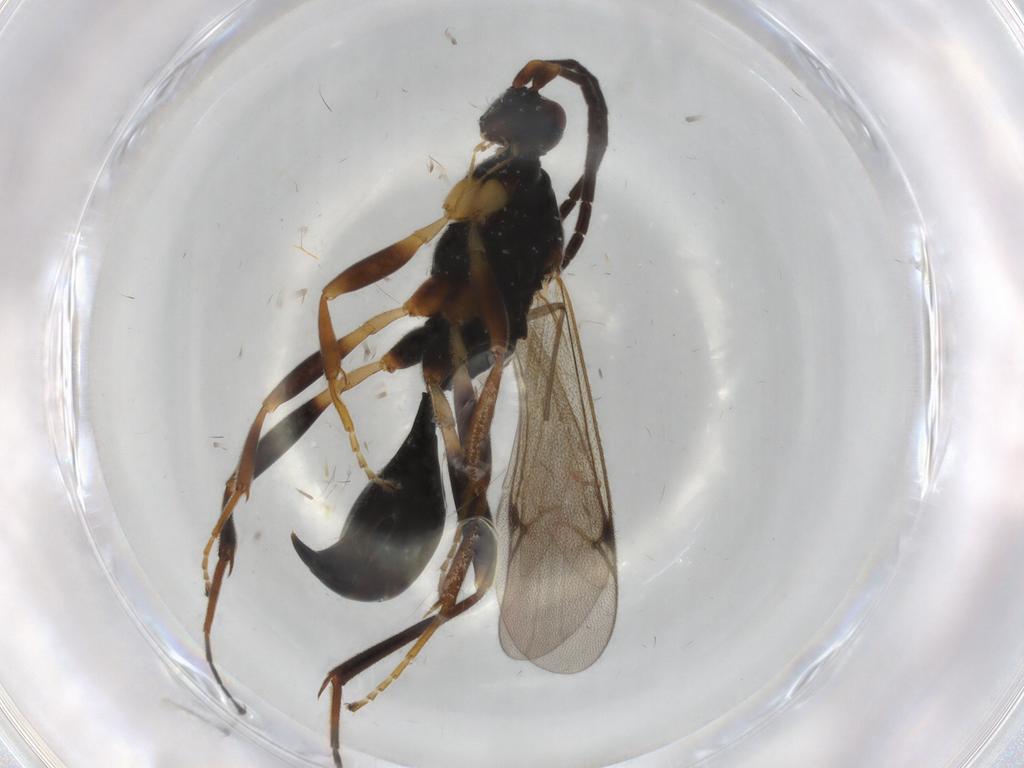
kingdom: Animalia
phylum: Arthropoda
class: Insecta
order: Hymenoptera
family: Proctotrupidae
